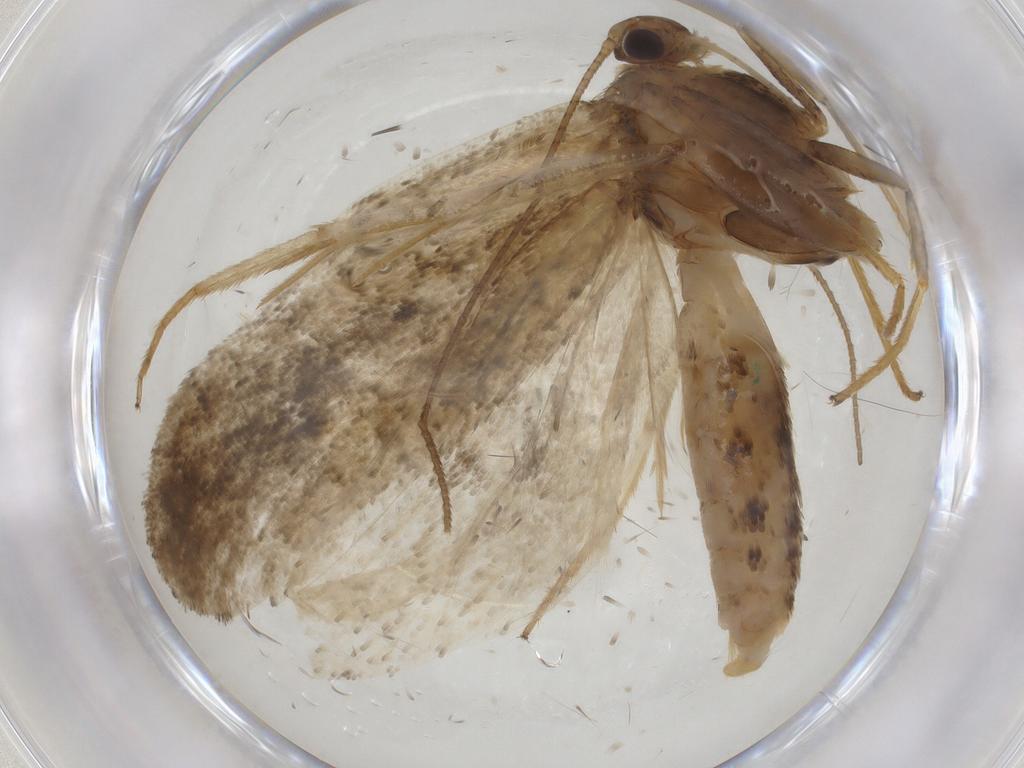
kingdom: Animalia
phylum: Arthropoda
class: Insecta
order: Lepidoptera
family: Depressariidae
